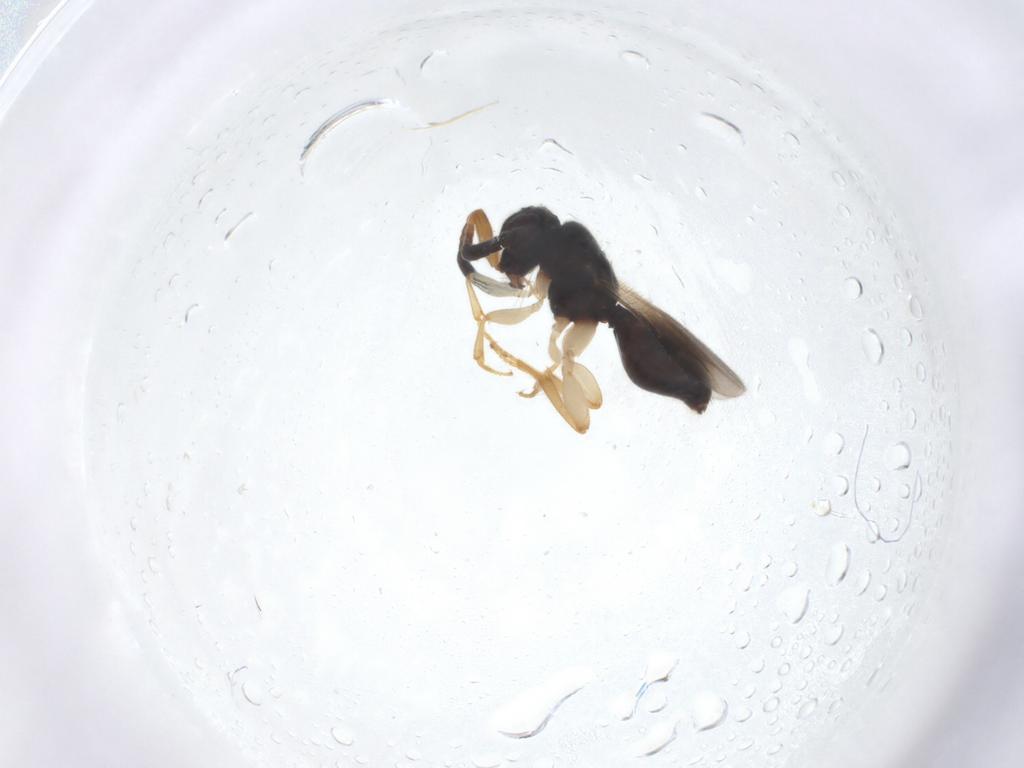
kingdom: Animalia
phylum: Arthropoda
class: Insecta
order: Hymenoptera
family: Megaspilidae
